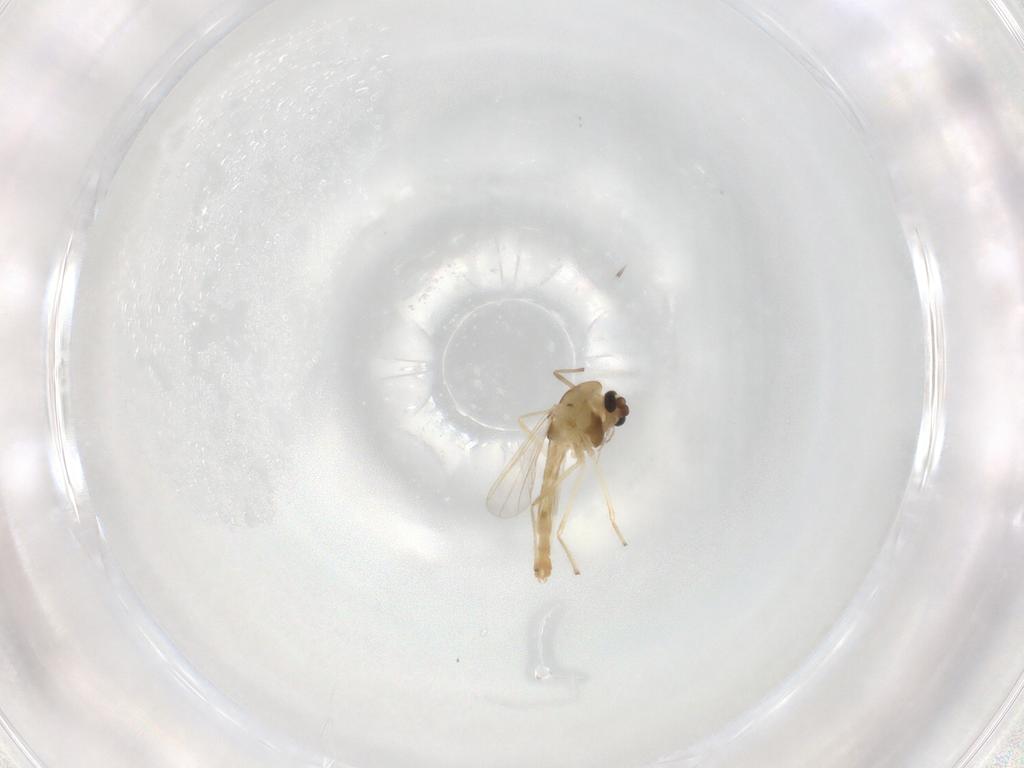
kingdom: Animalia
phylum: Arthropoda
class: Insecta
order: Diptera
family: Chironomidae
